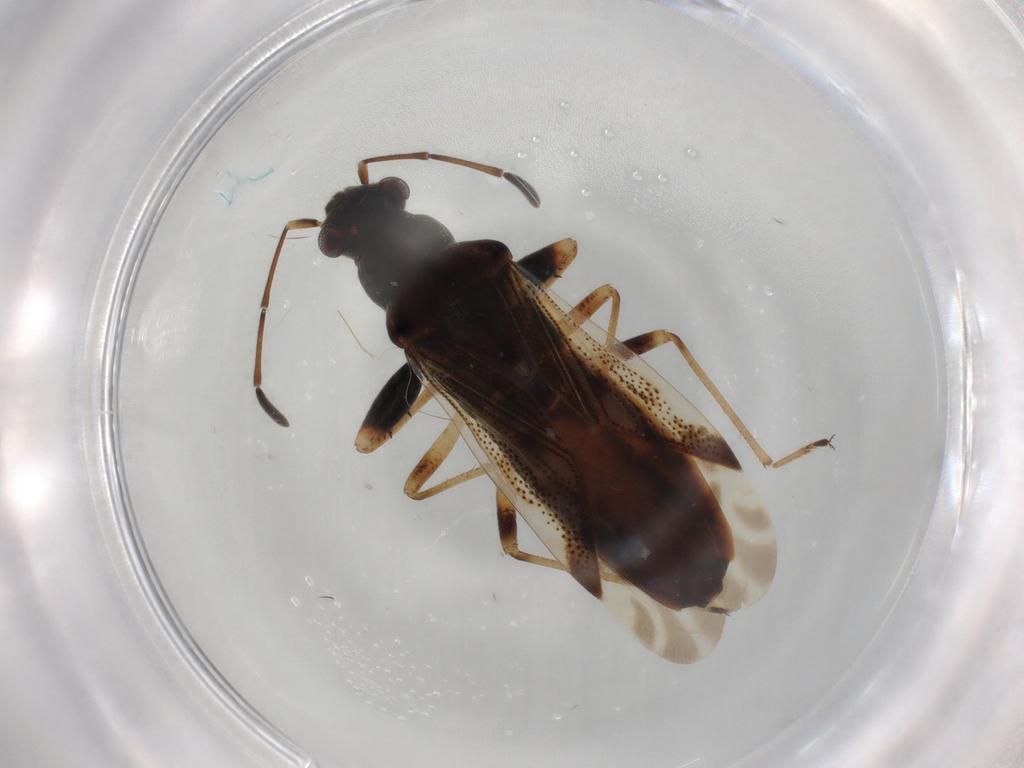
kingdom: Animalia
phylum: Arthropoda
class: Insecta
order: Hemiptera
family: Rhyparochromidae
